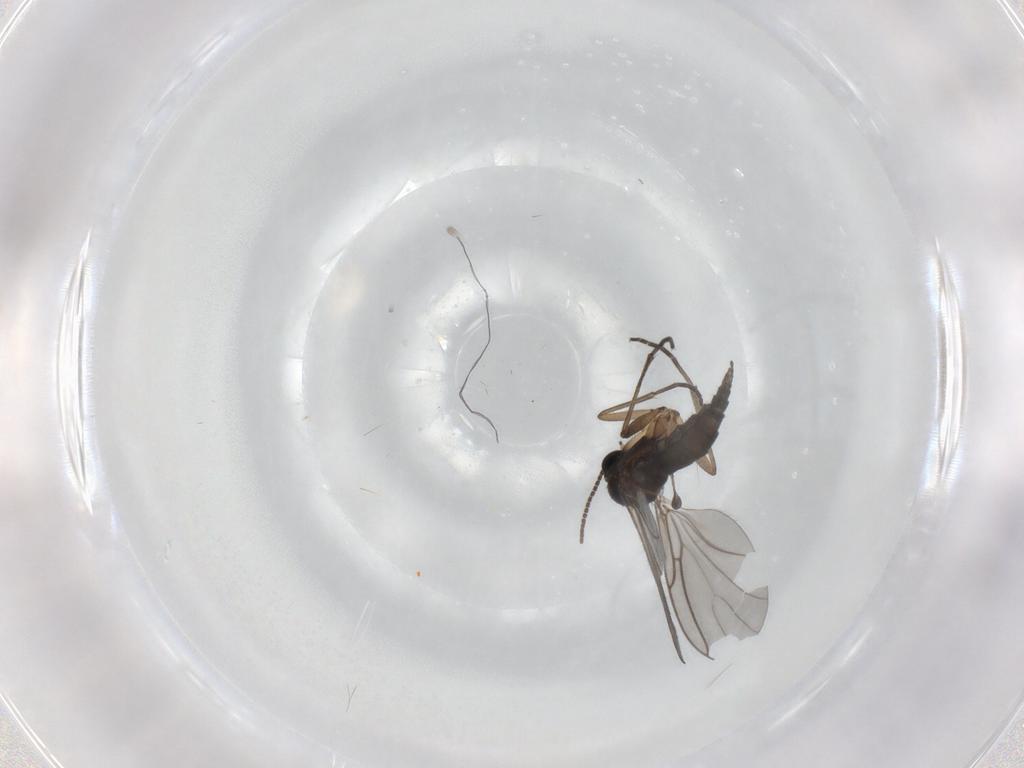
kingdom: Animalia
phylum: Arthropoda
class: Insecta
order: Diptera
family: Sciaridae
